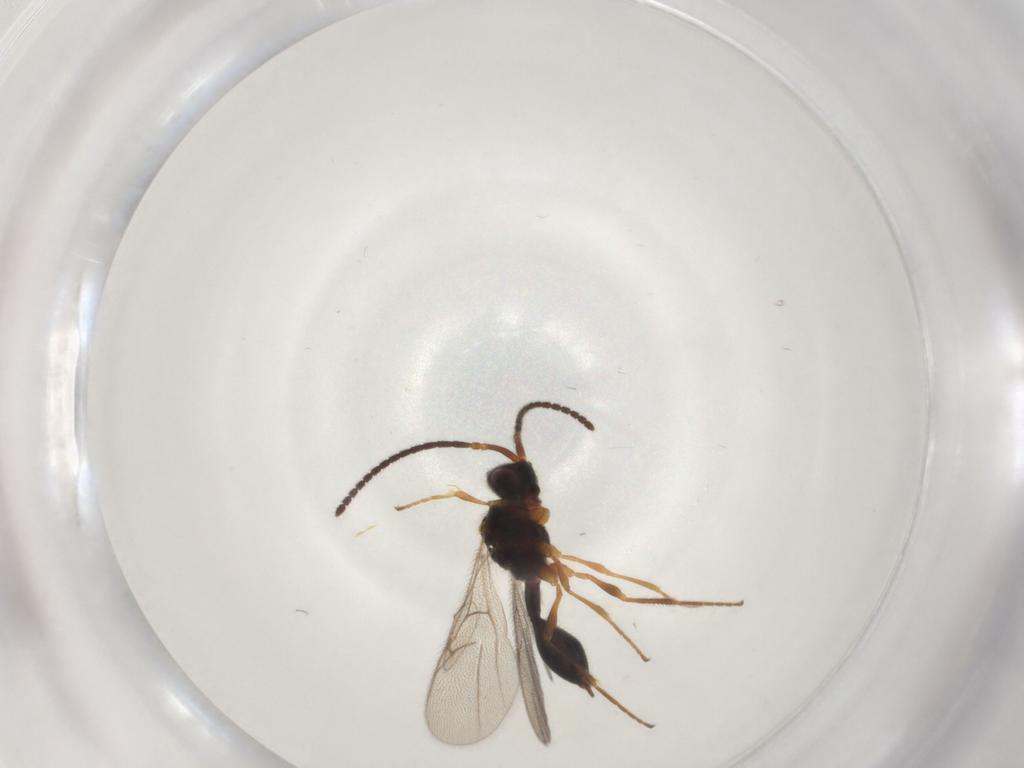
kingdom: Animalia
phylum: Arthropoda
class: Insecta
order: Hymenoptera
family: Diapriidae
